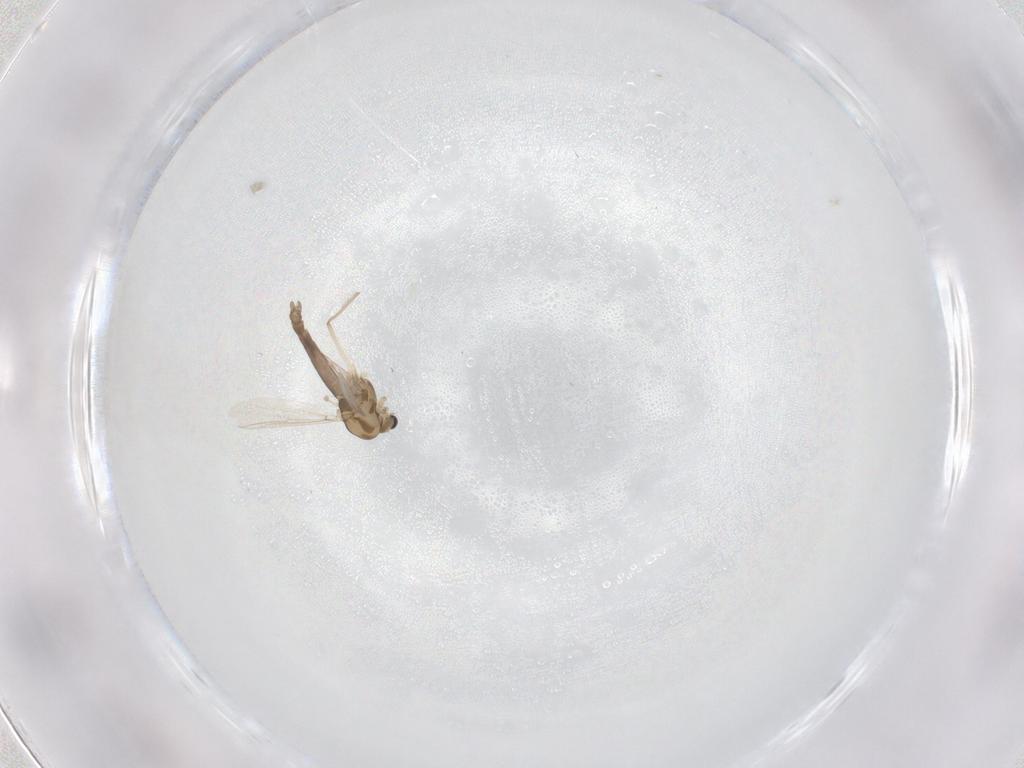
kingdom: Animalia
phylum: Arthropoda
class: Insecta
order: Diptera
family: Chironomidae
